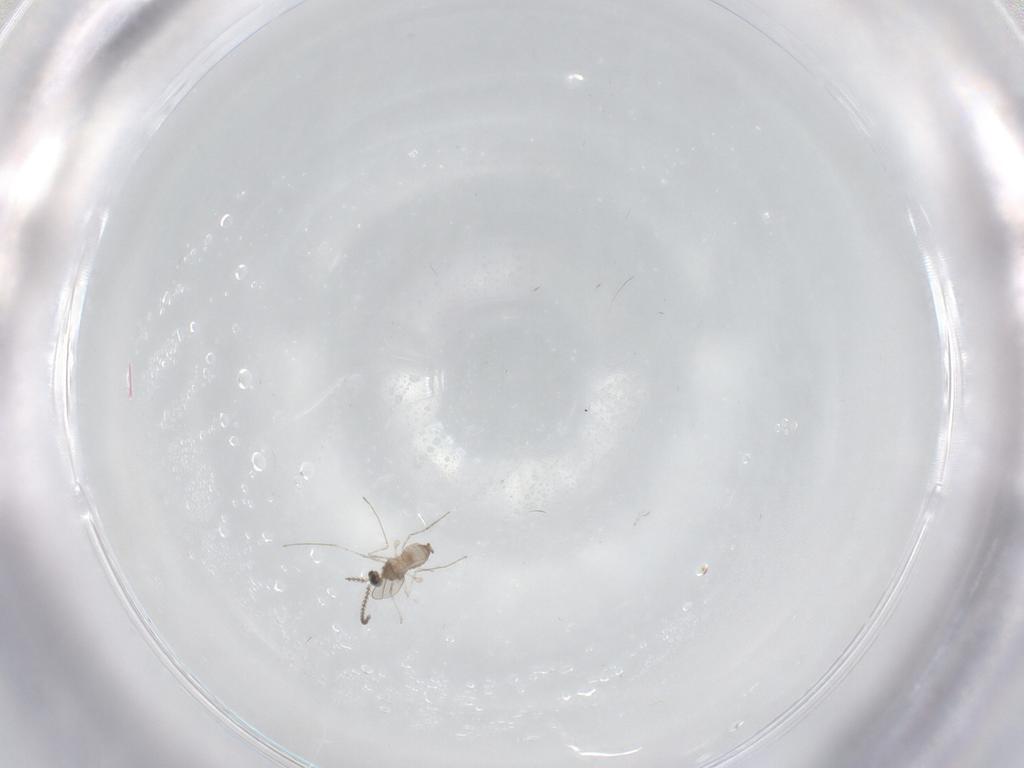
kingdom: Animalia
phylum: Arthropoda
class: Insecta
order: Diptera
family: Cecidomyiidae
